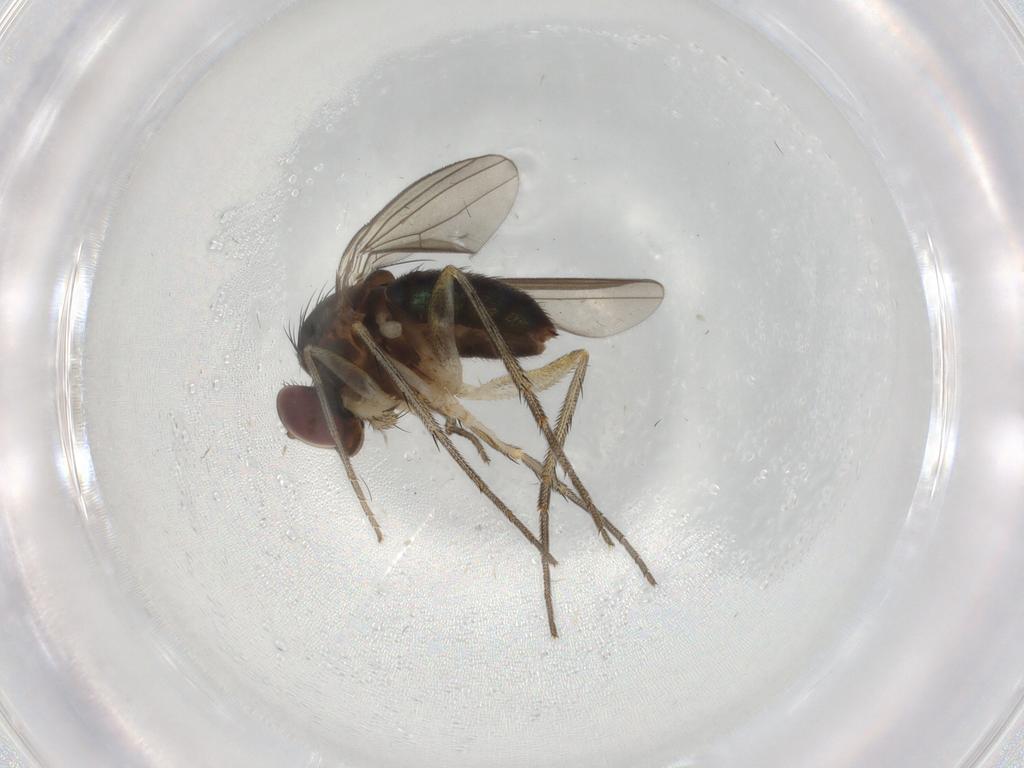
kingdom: Animalia
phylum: Arthropoda
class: Insecta
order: Diptera
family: Dolichopodidae
